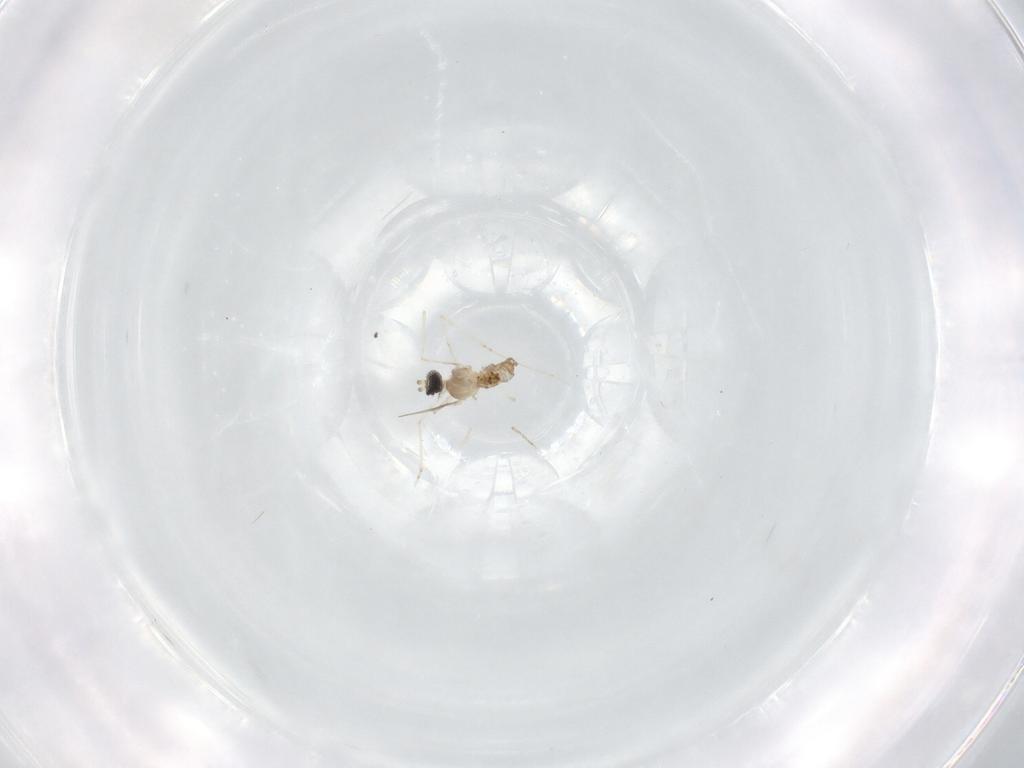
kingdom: Animalia
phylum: Arthropoda
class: Insecta
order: Diptera
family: Cecidomyiidae
